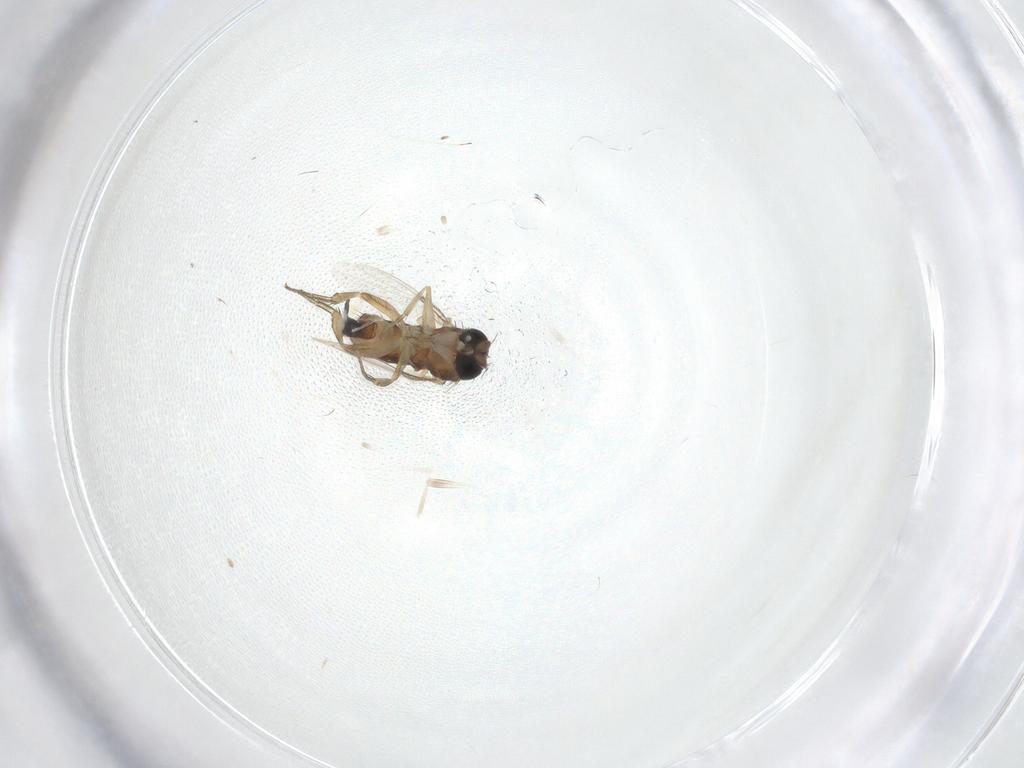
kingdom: Animalia
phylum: Arthropoda
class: Insecta
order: Diptera
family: Phoridae
